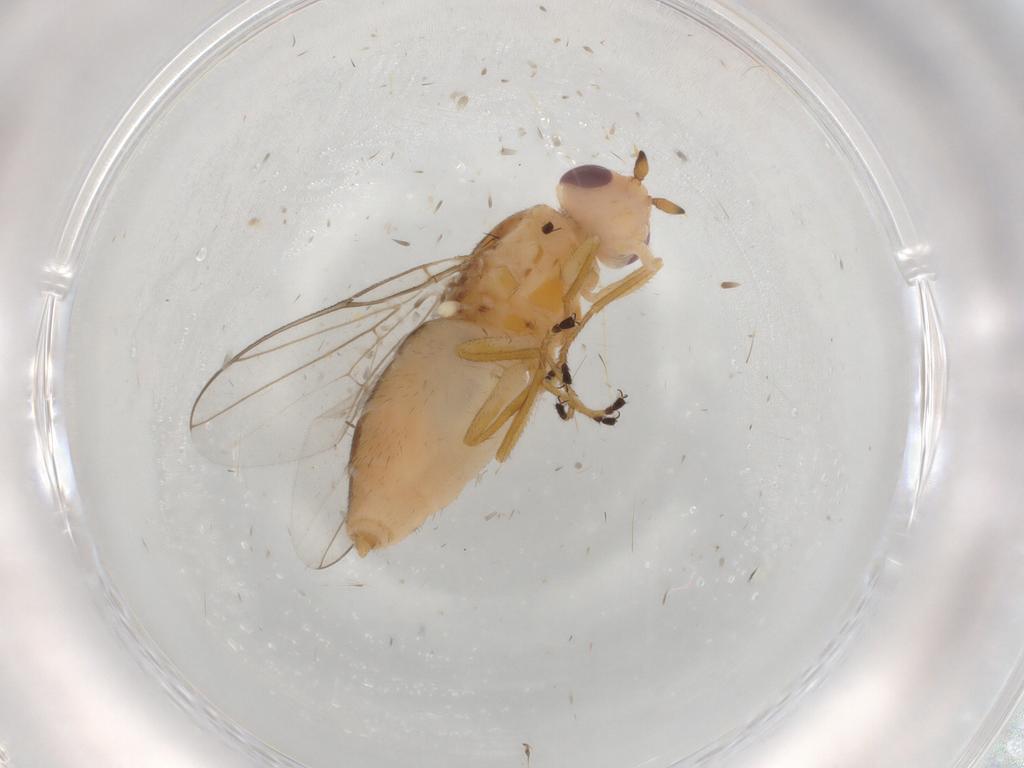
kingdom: Animalia
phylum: Arthropoda
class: Insecta
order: Diptera
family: Chloropidae
